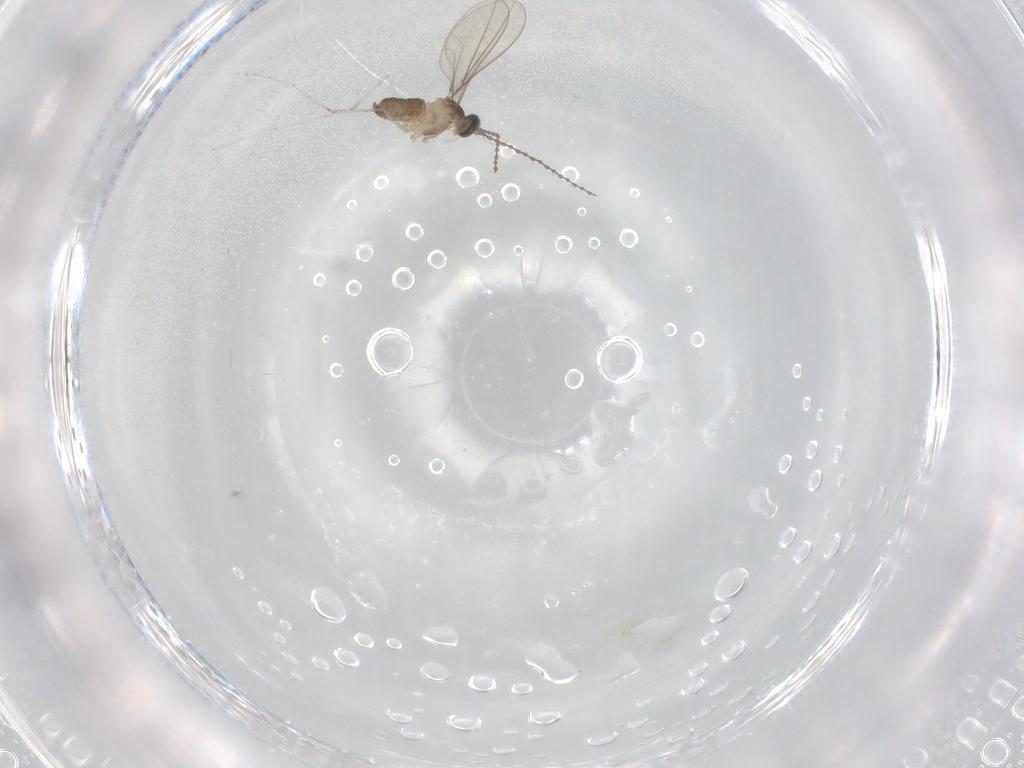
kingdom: Animalia
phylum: Arthropoda
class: Insecta
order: Diptera
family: Cecidomyiidae
